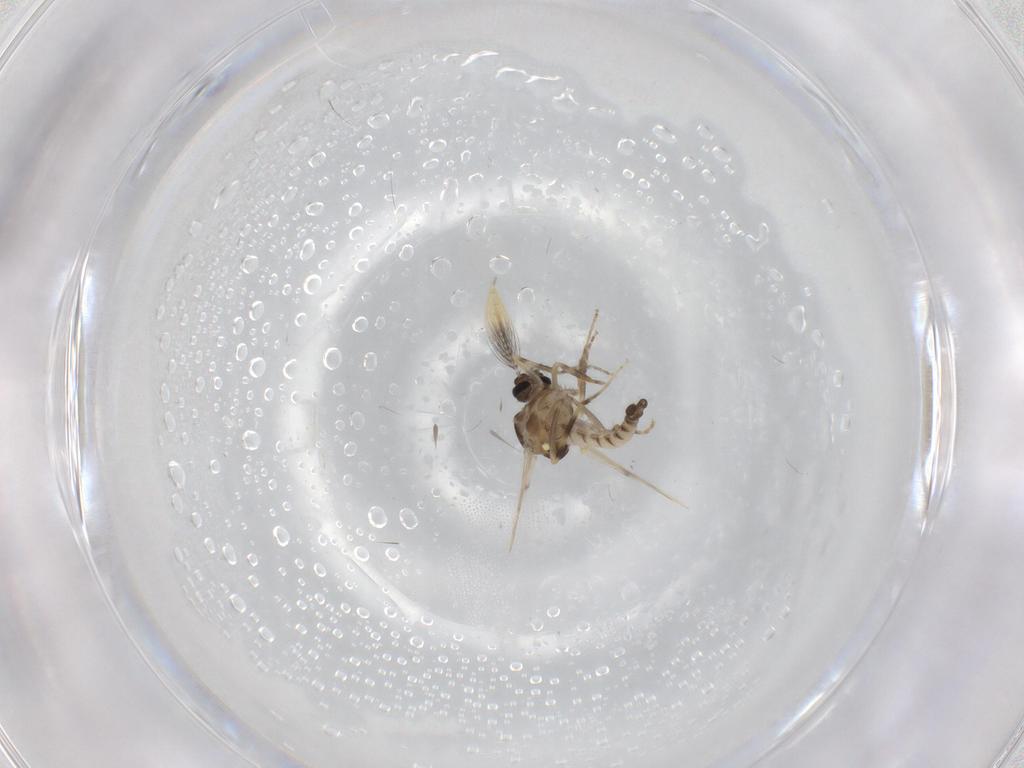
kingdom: Animalia
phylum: Arthropoda
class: Insecta
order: Diptera
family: Ceratopogonidae
